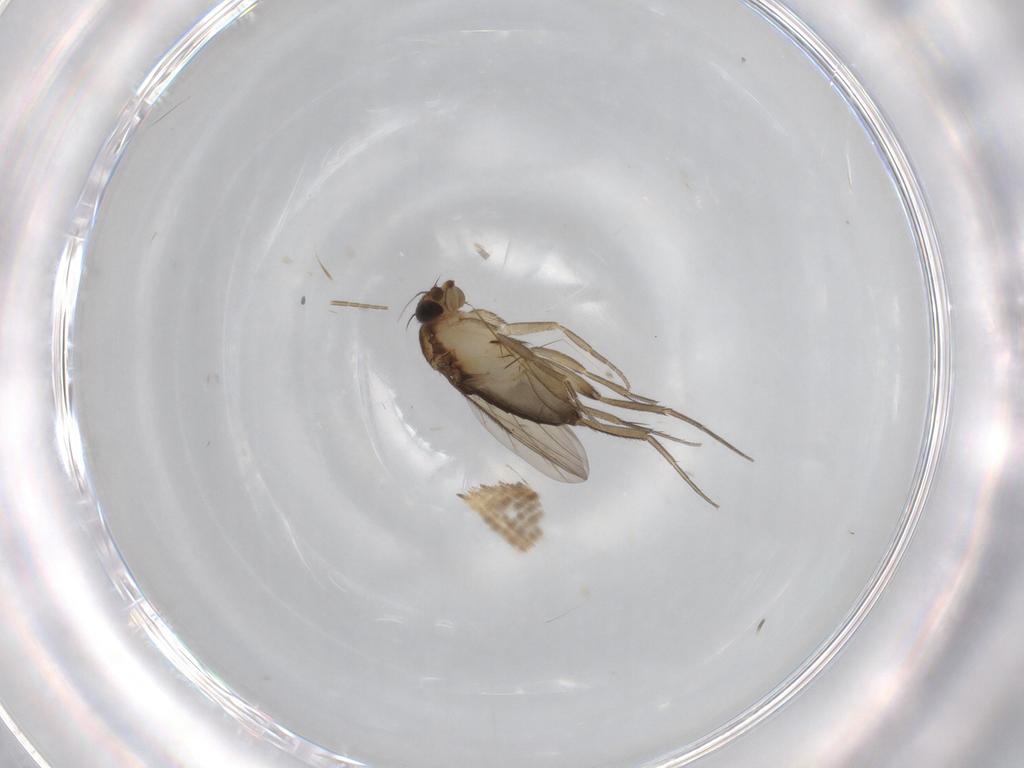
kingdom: Animalia
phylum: Arthropoda
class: Insecta
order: Diptera
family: Phoridae
